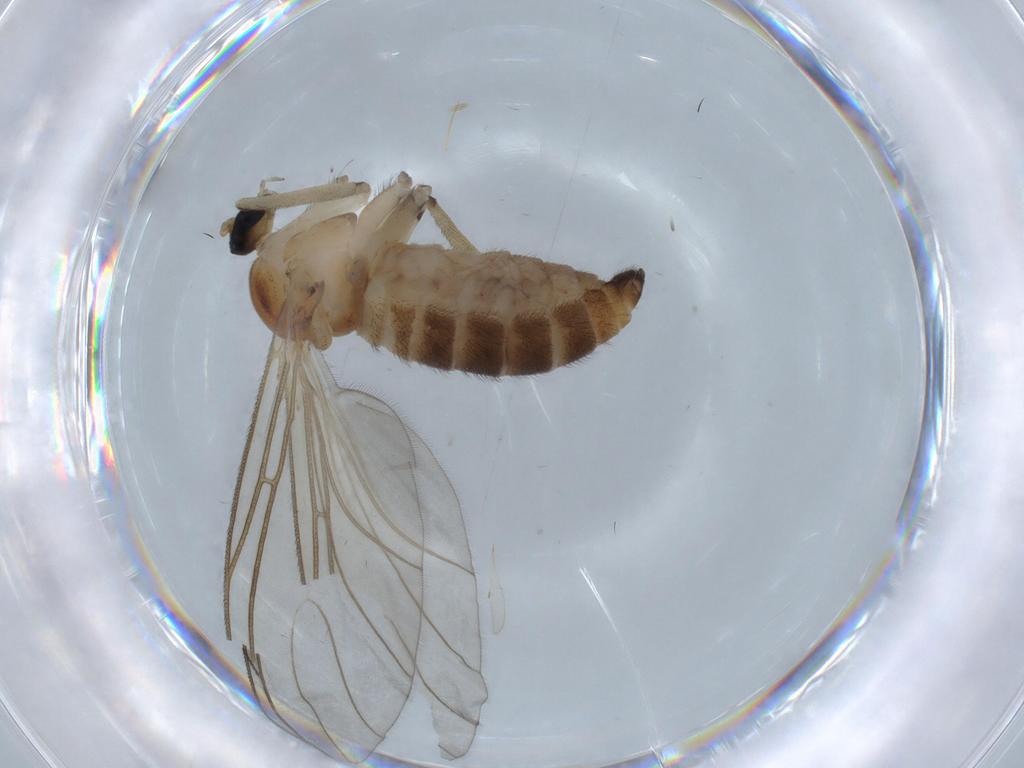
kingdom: Animalia
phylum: Arthropoda
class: Insecta
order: Diptera
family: Sciaridae
